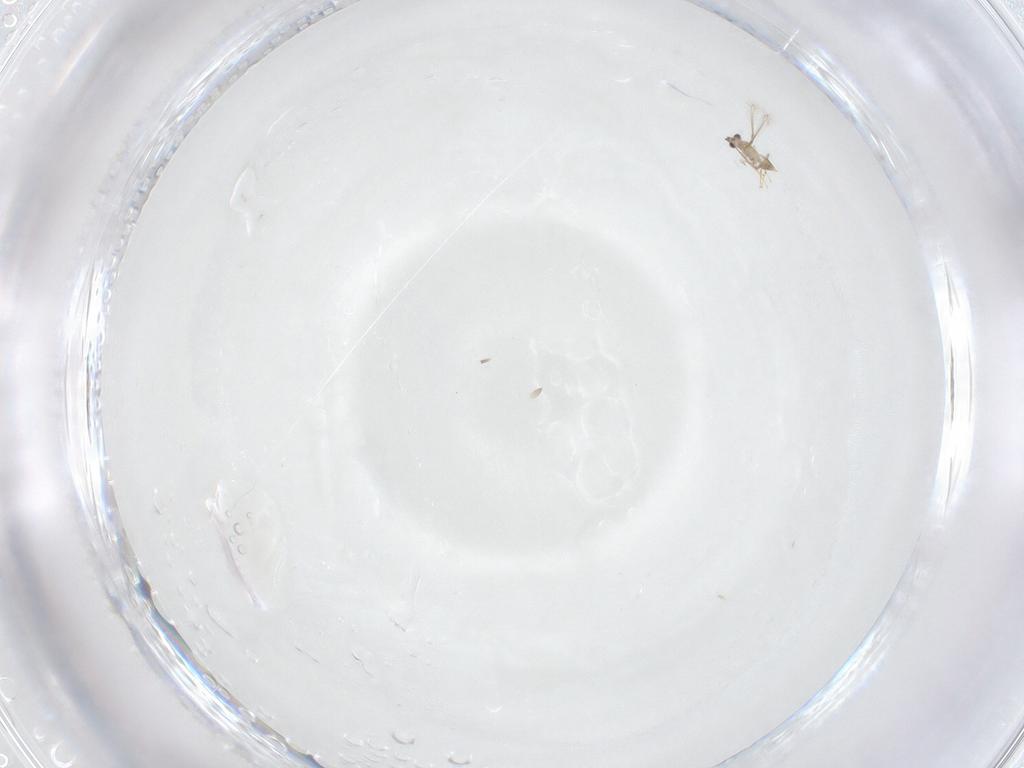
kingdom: Animalia
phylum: Arthropoda
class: Insecta
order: Hymenoptera
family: Mymaridae
